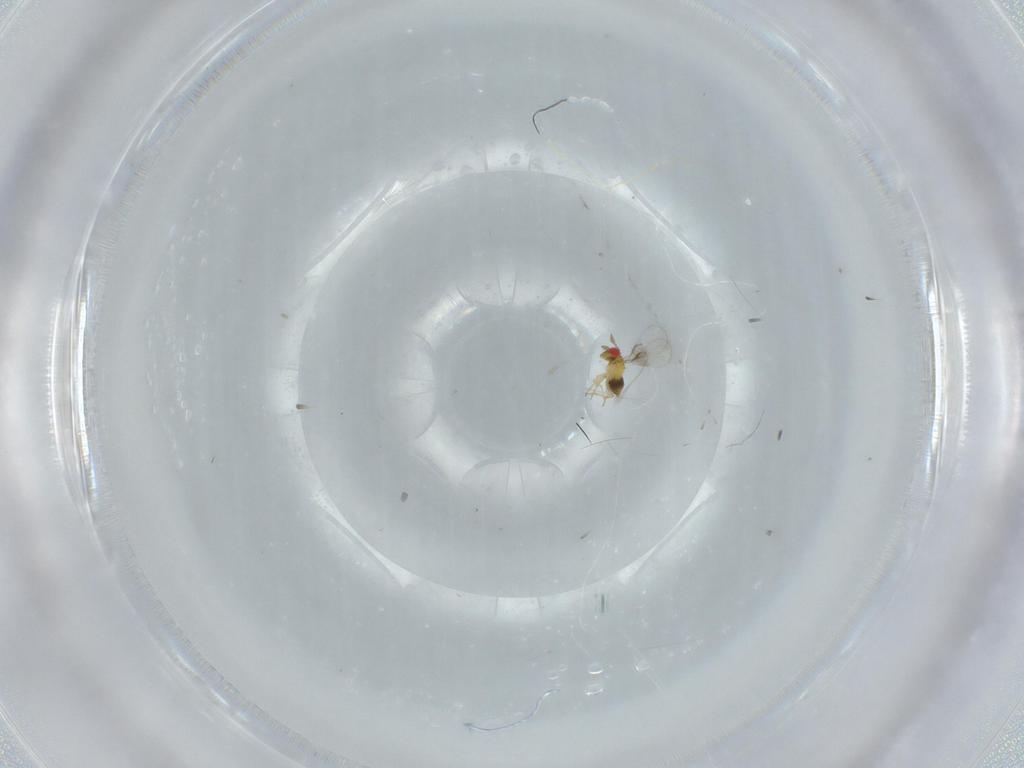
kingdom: Animalia
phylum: Arthropoda
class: Insecta
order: Hymenoptera
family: Trichogrammatidae
